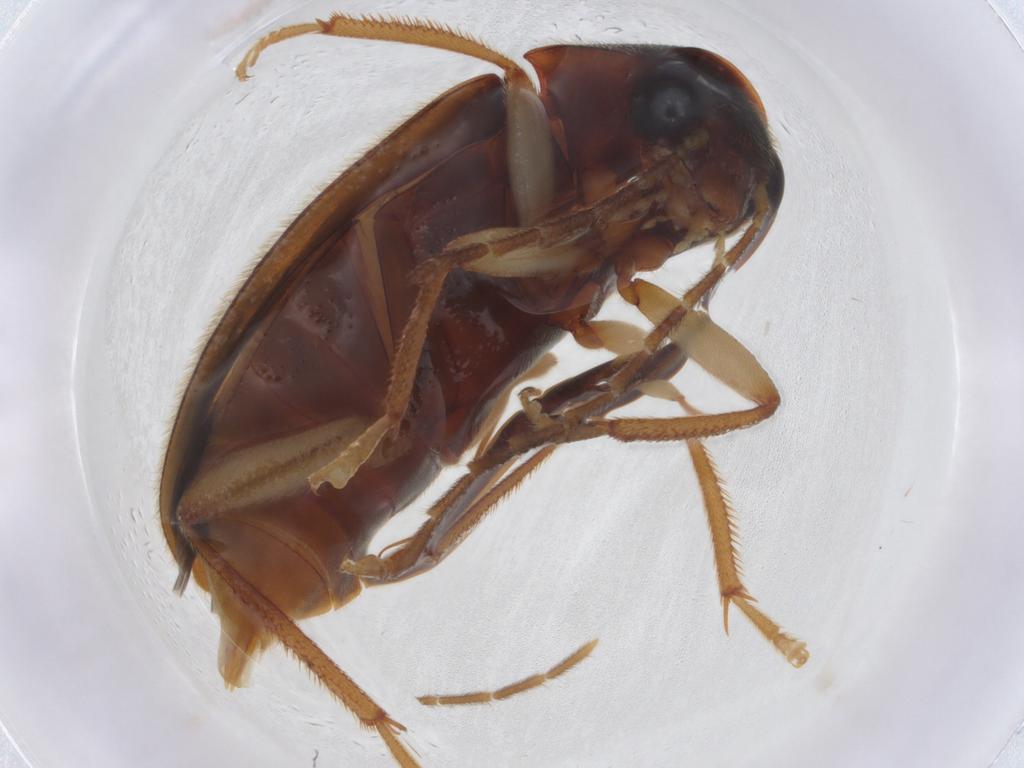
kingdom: Animalia
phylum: Arthropoda
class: Insecta
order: Coleoptera
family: Ptilodactylidae
